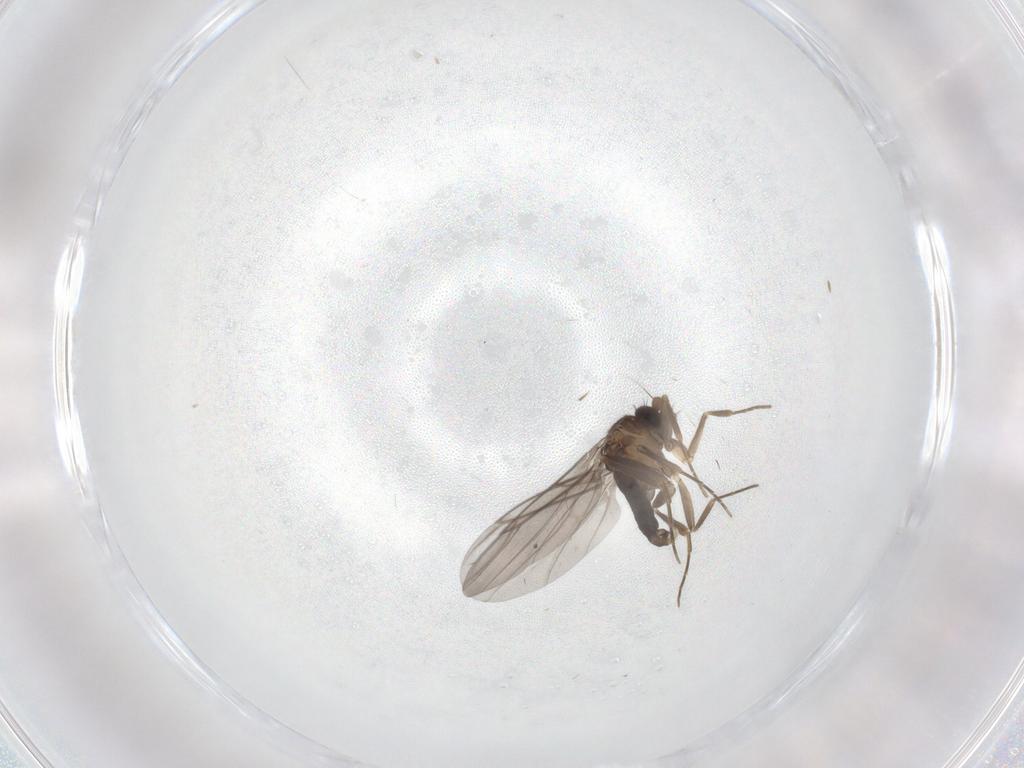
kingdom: Animalia
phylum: Arthropoda
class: Insecta
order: Diptera
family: Phoridae
